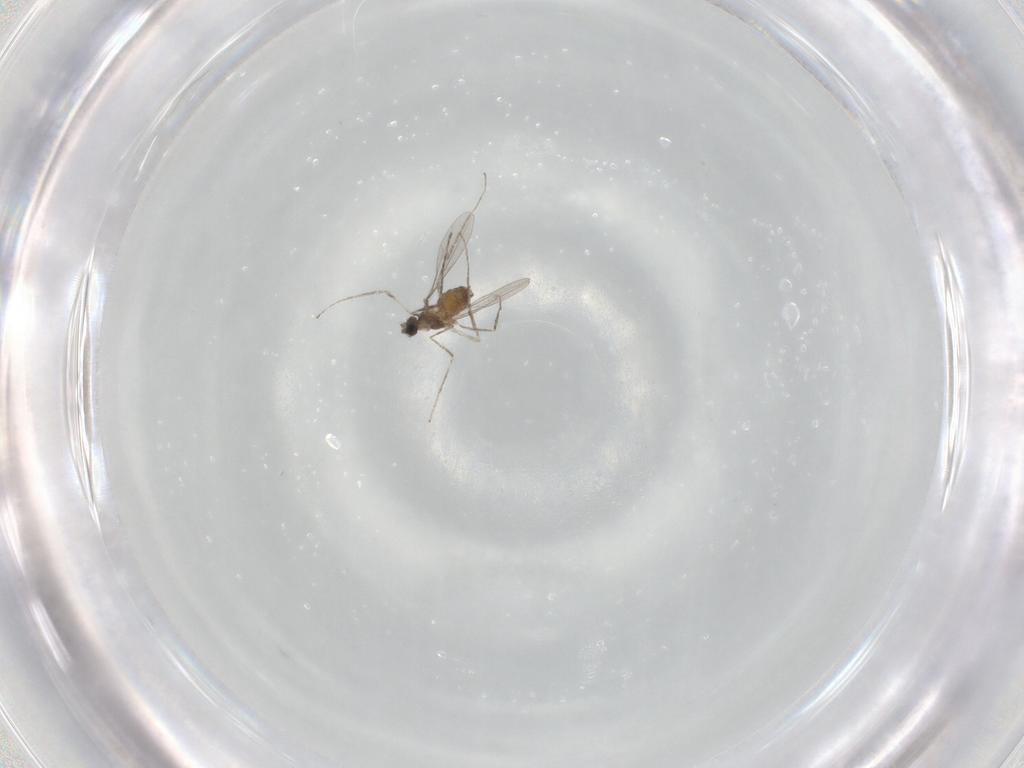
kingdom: Animalia
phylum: Arthropoda
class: Insecta
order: Diptera
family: Cecidomyiidae
